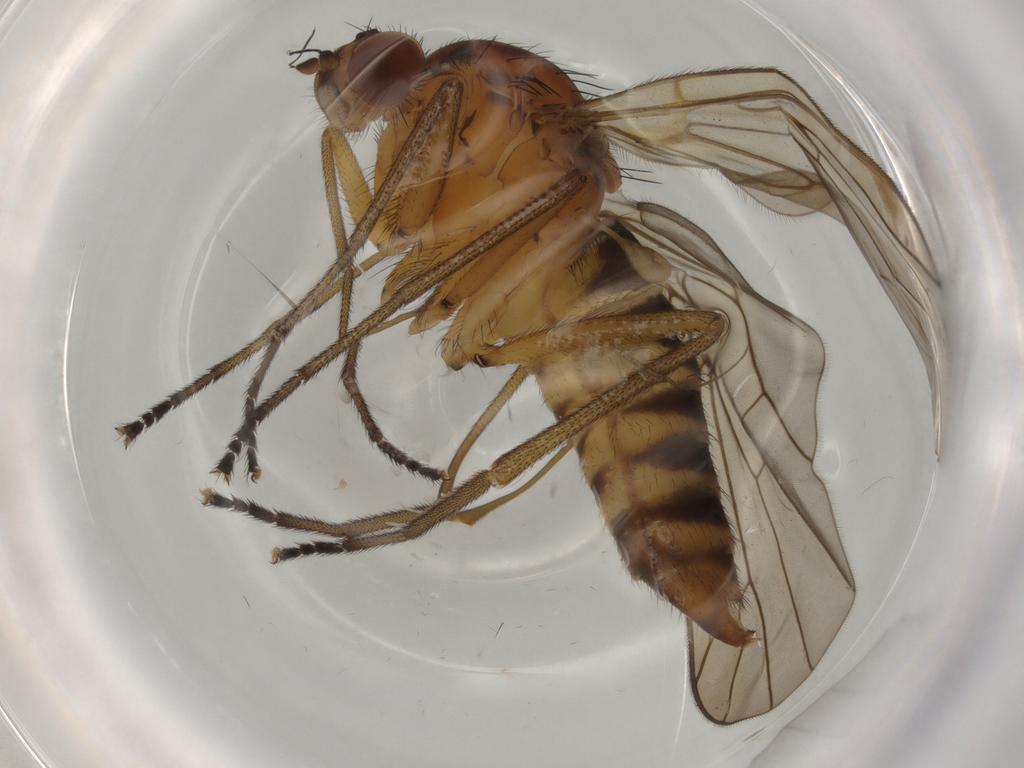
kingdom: Animalia
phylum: Arthropoda
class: Insecta
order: Diptera
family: Brachystomatidae
